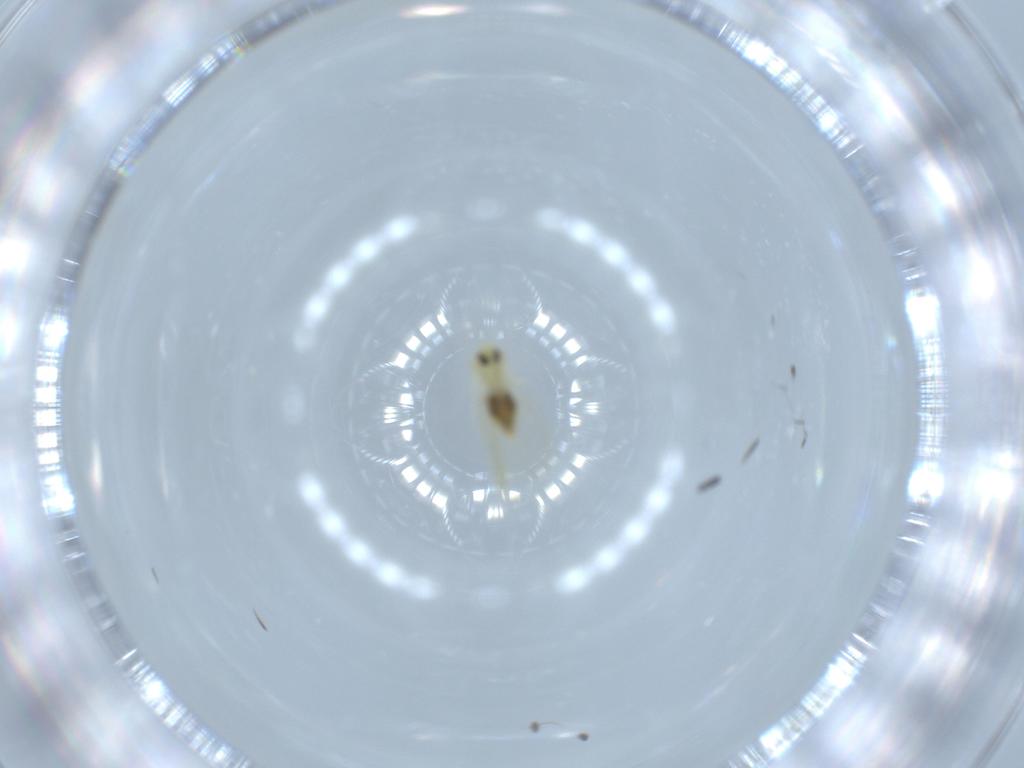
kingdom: Animalia
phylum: Arthropoda
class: Insecta
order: Hemiptera
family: Aleyrodidae
